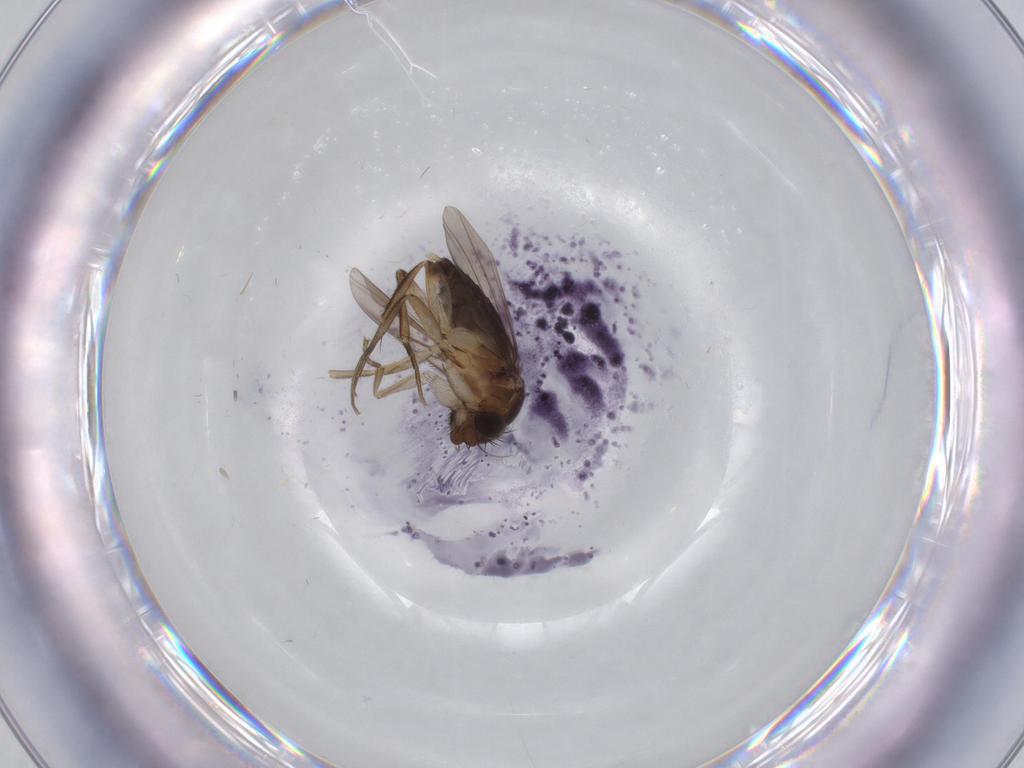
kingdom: Animalia
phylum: Arthropoda
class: Insecta
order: Diptera
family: Phoridae
